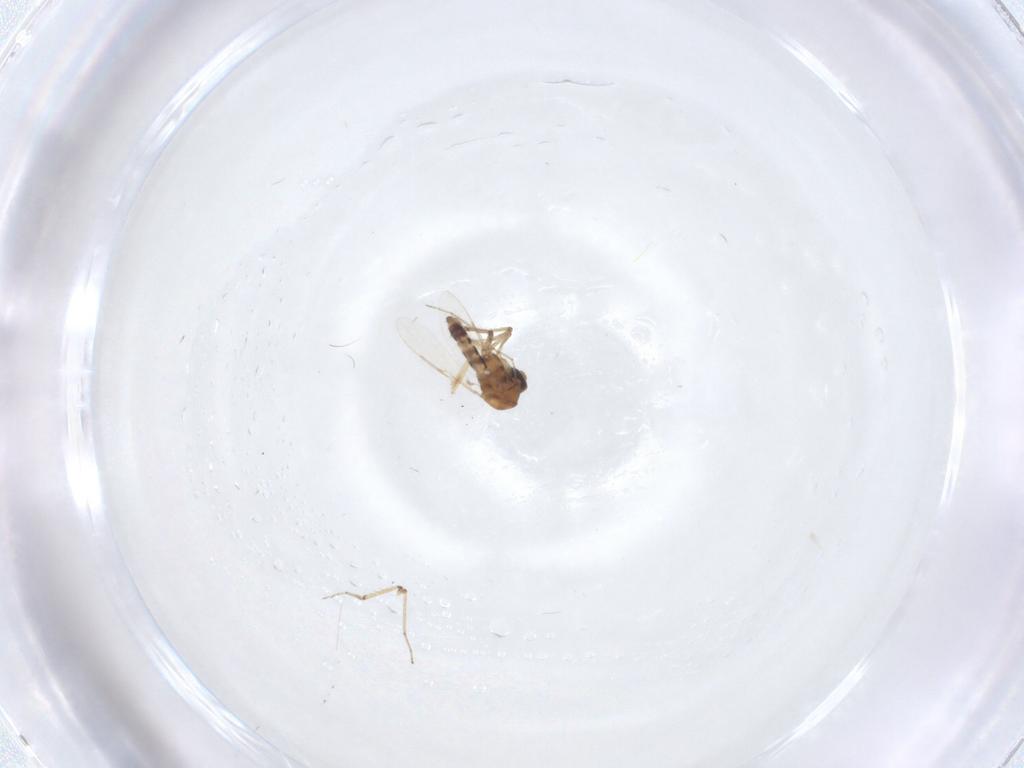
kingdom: Animalia
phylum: Arthropoda
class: Insecta
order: Diptera
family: Ceratopogonidae
